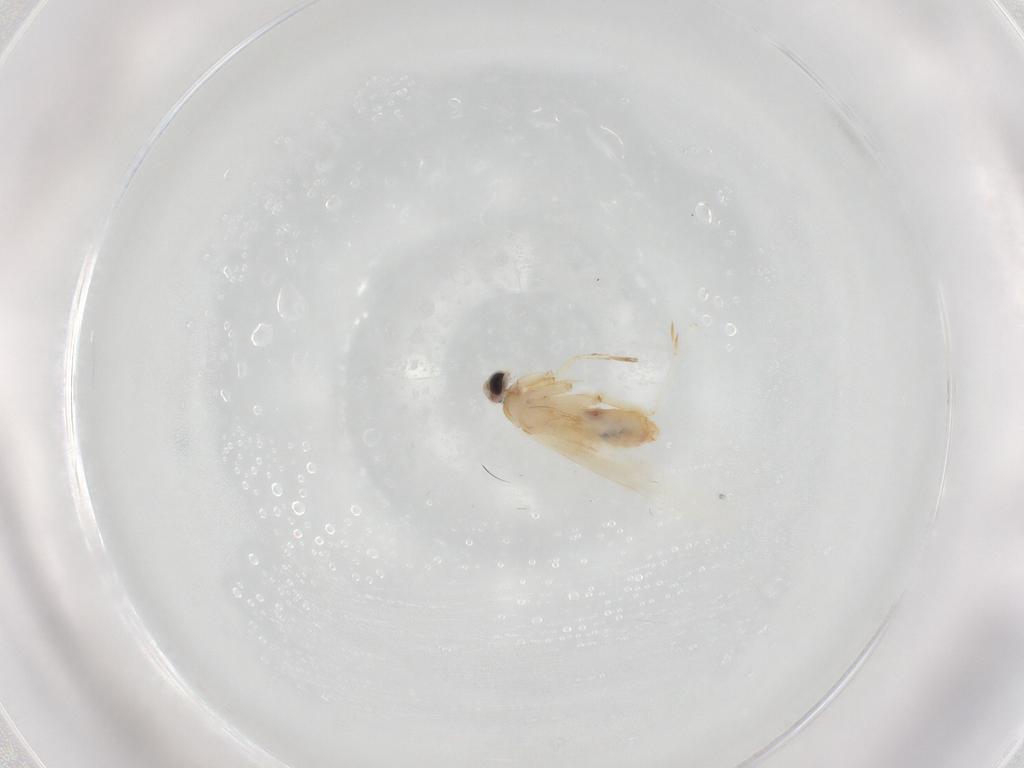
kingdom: Animalia
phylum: Arthropoda
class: Insecta
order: Lepidoptera
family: Nepticulidae
